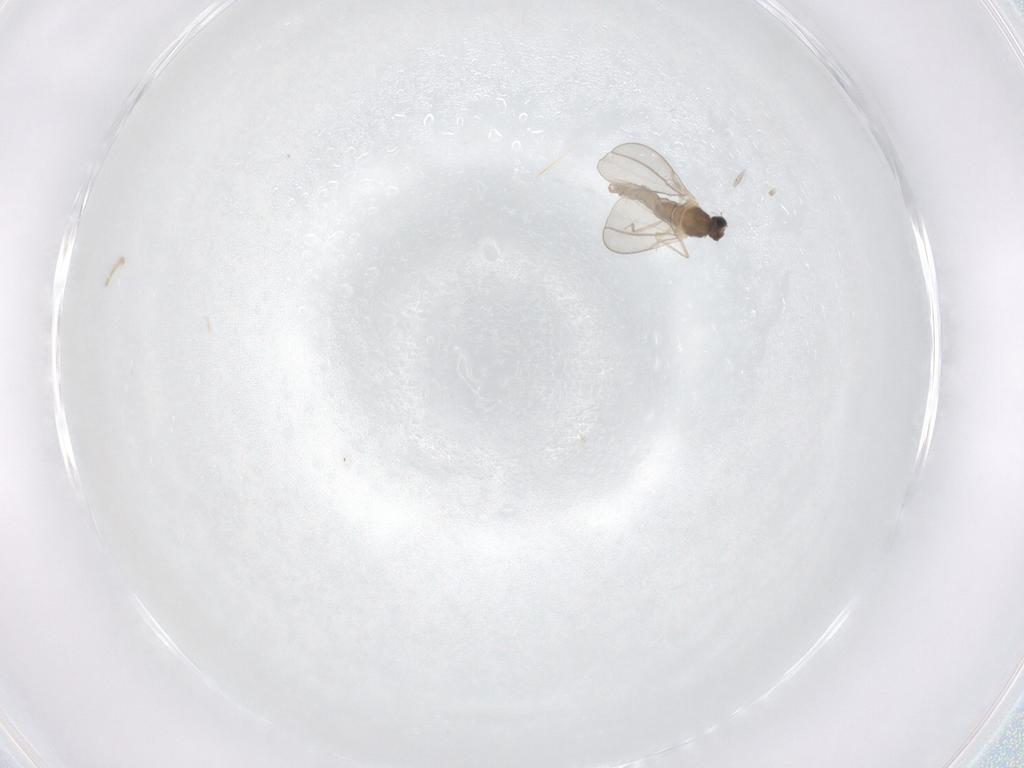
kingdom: Animalia
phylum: Arthropoda
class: Insecta
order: Diptera
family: Cecidomyiidae
